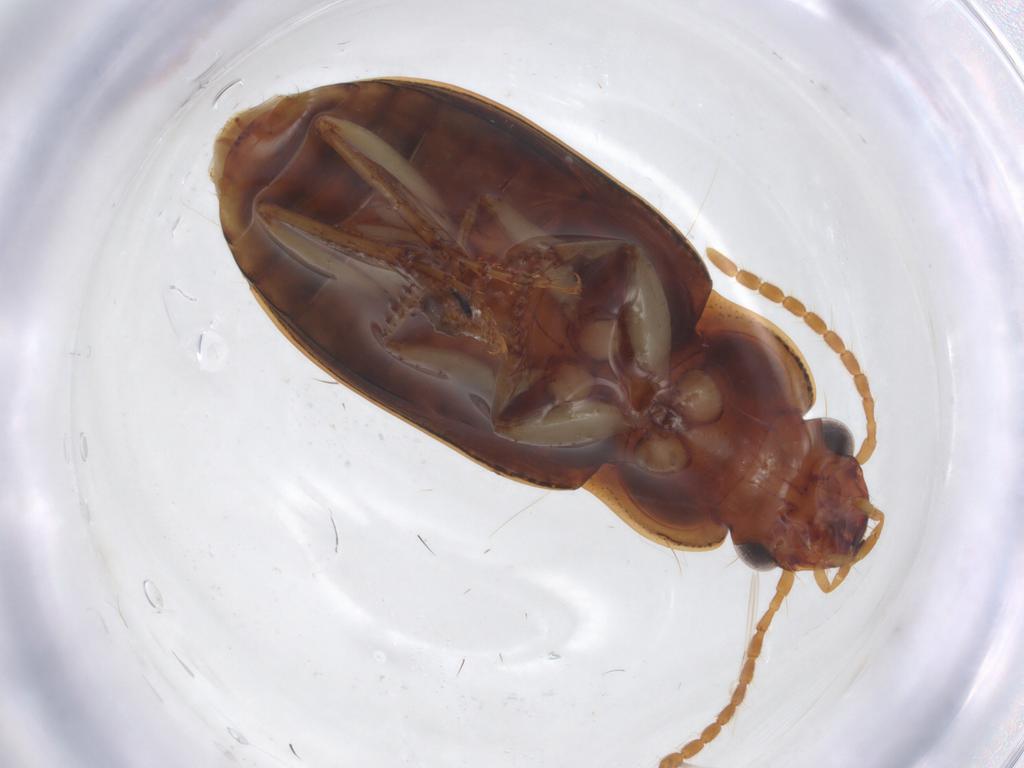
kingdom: Animalia
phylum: Arthropoda
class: Insecta
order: Coleoptera
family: Carabidae
